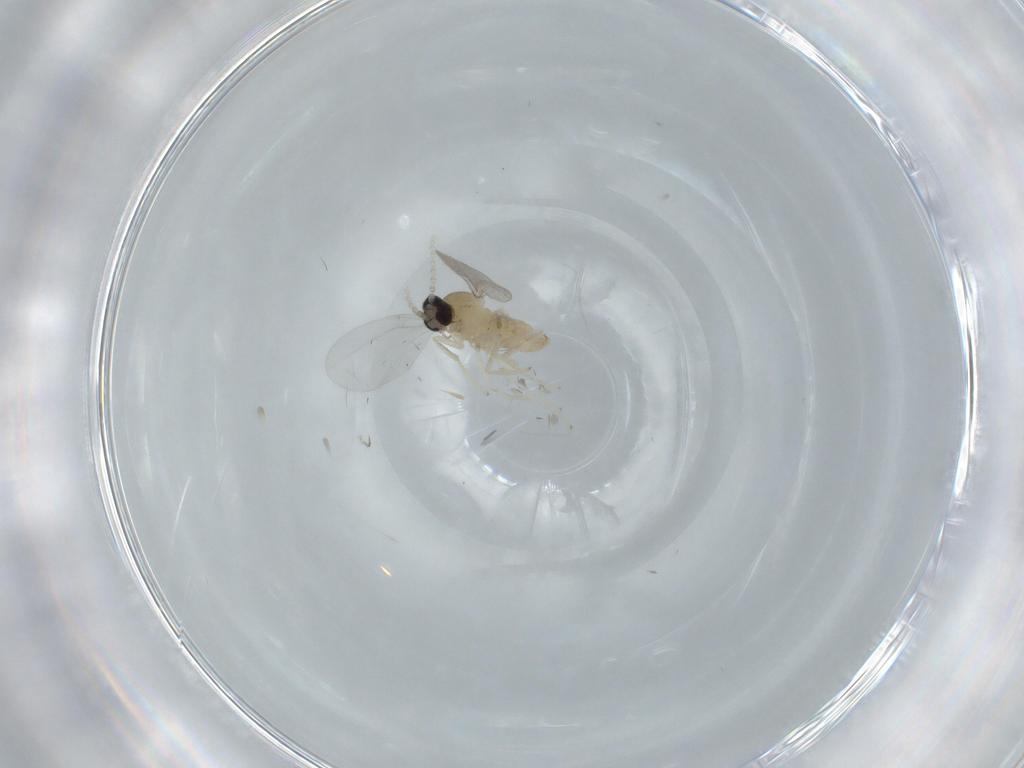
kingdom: Animalia
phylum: Arthropoda
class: Insecta
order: Diptera
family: Cecidomyiidae
